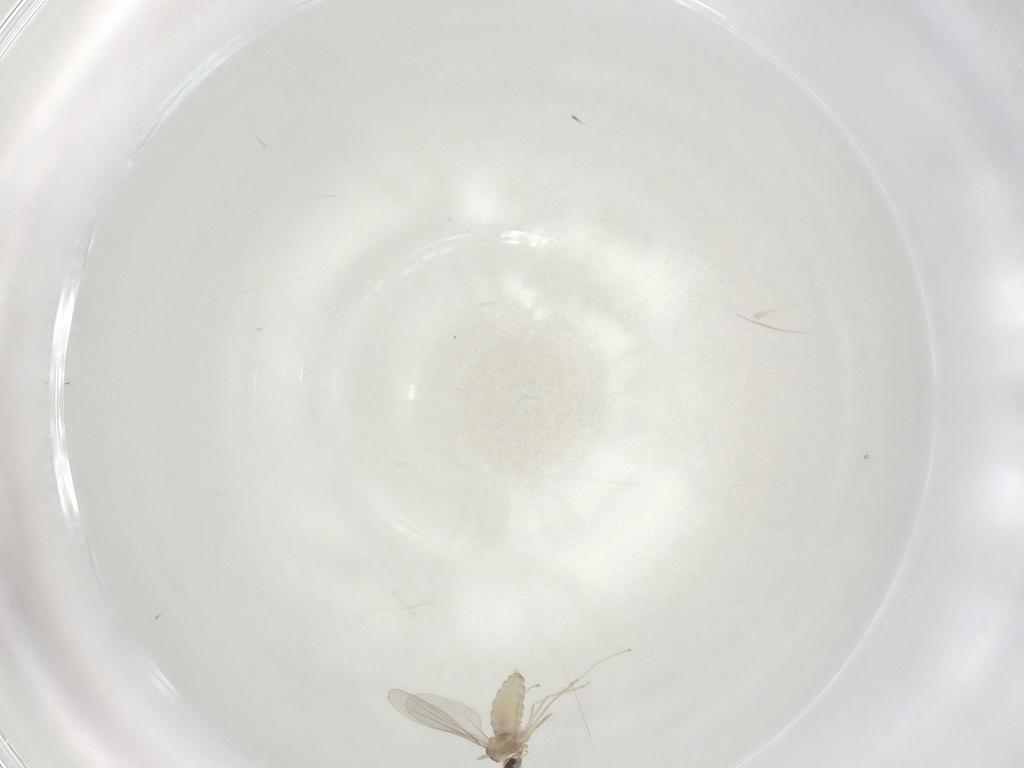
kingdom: Animalia
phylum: Arthropoda
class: Insecta
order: Diptera
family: Cecidomyiidae
